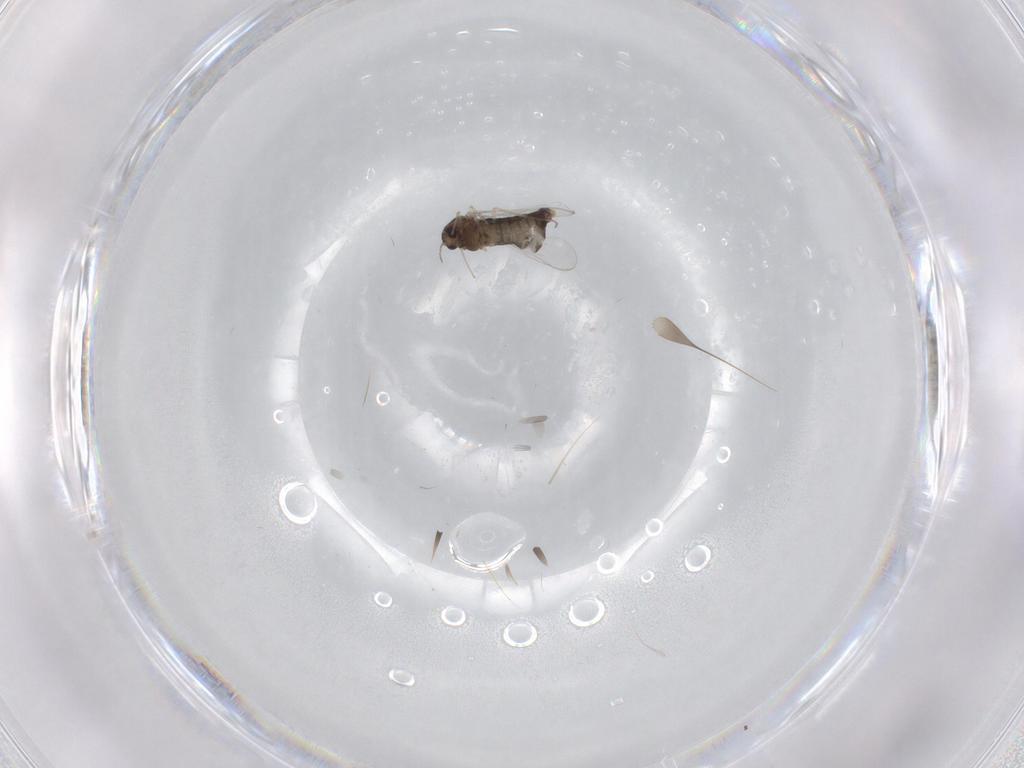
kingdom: Animalia
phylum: Arthropoda
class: Insecta
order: Diptera
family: Chironomidae
